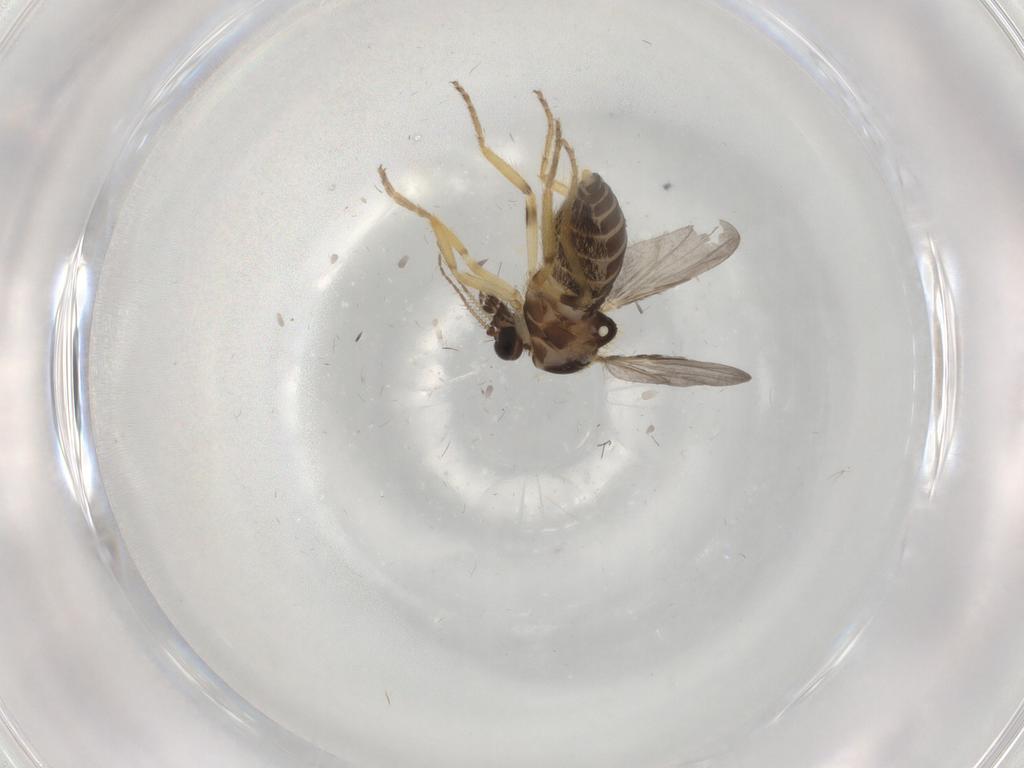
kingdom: Animalia
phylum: Arthropoda
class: Insecta
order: Diptera
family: Ceratopogonidae
